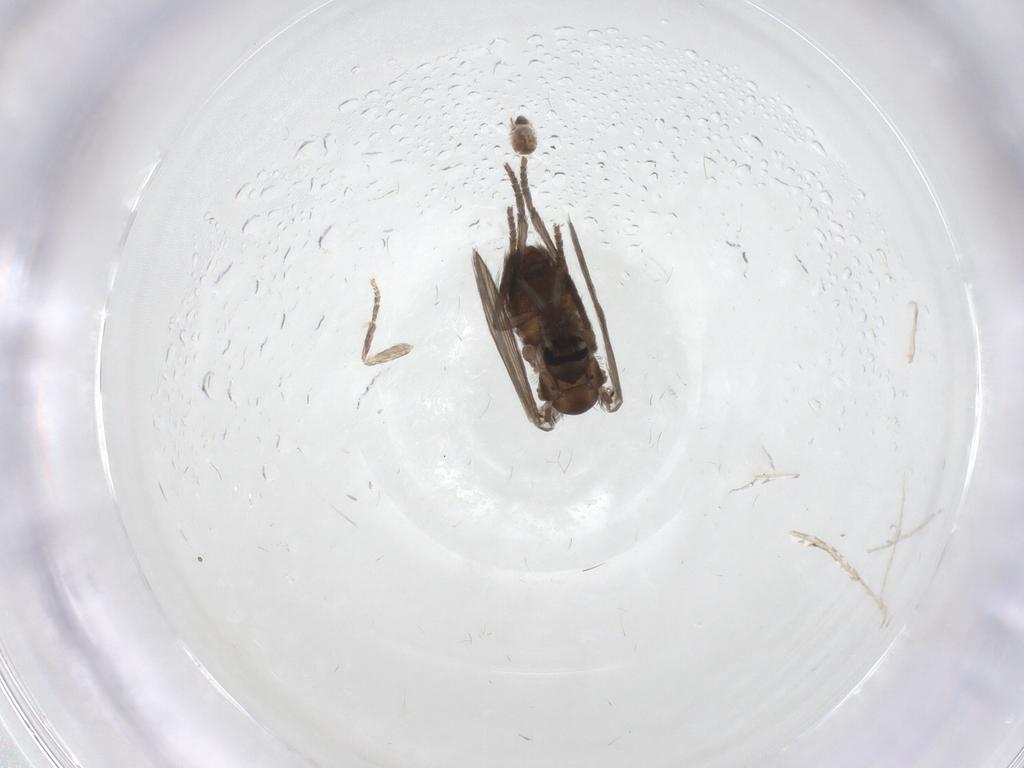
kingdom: Animalia
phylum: Arthropoda
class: Insecta
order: Diptera
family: Psychodidae
